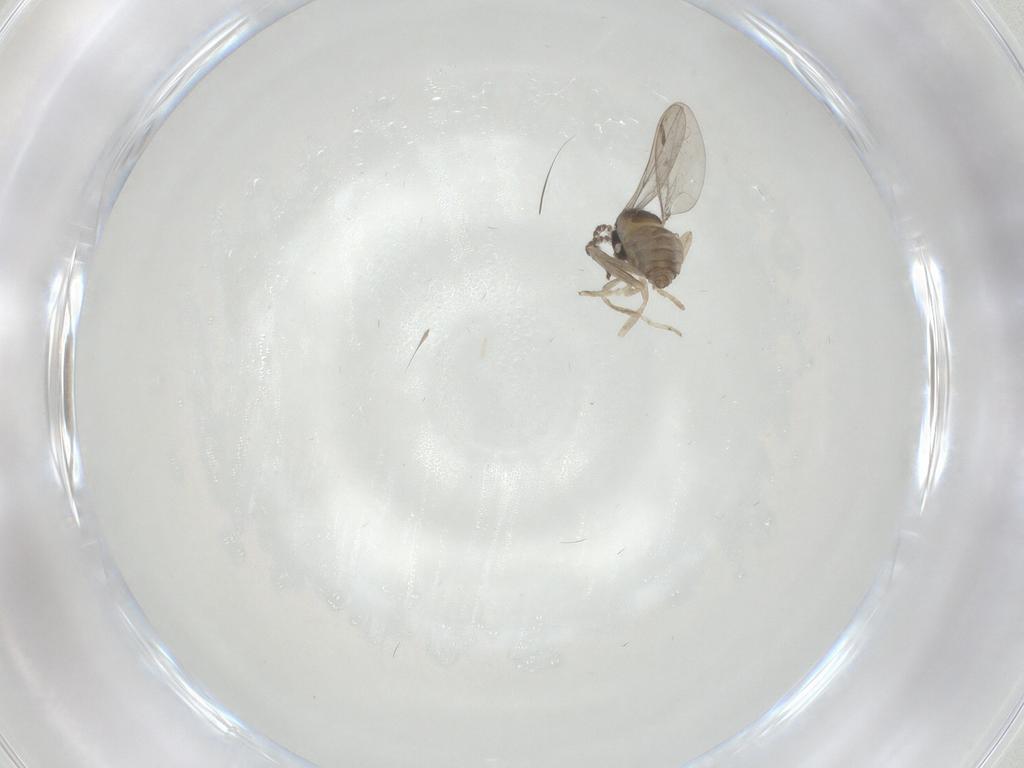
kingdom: Animalia
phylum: Arthropoda
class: Insecta
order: Diptera
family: Cecidomyiidae
